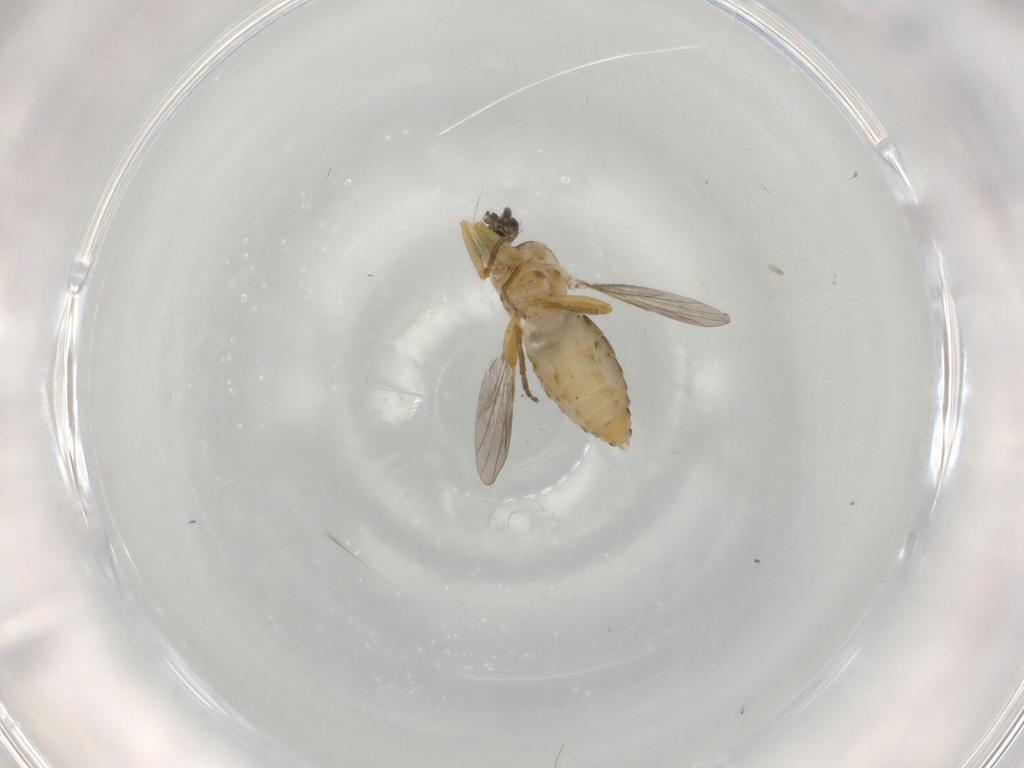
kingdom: Animalia
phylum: Arthropoda
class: Insecta
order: Diptera
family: Ceratopogonidae
